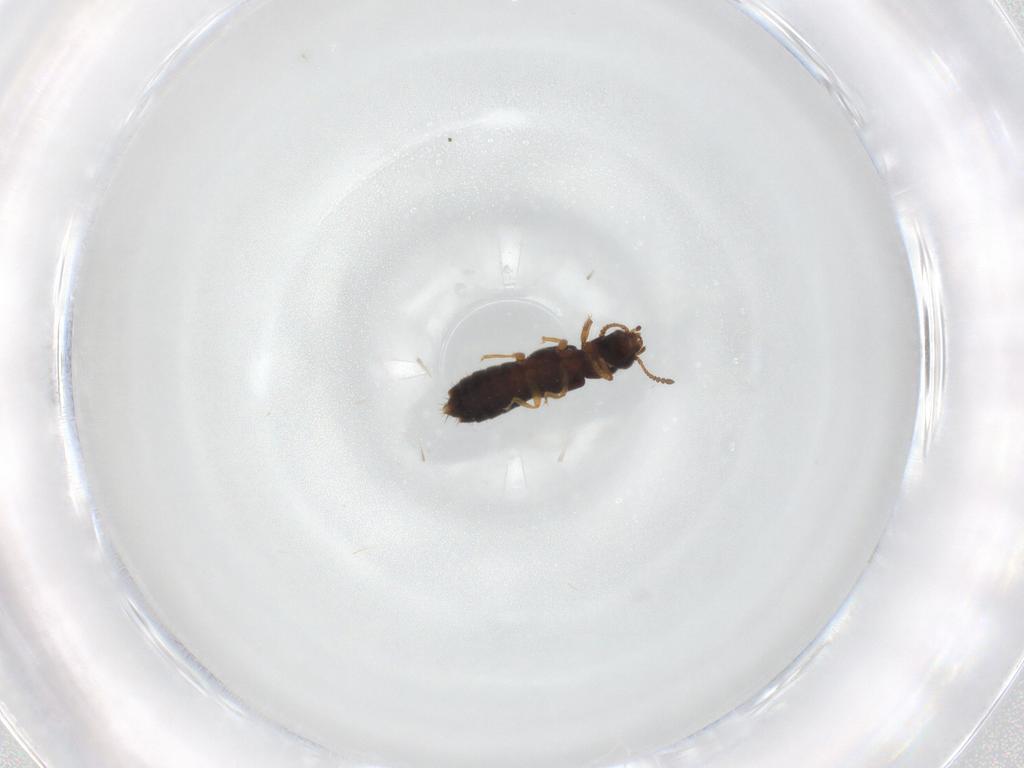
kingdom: Animalia
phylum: Arthropoda
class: Insecta
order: Coleoptera
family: Staphylinidae
